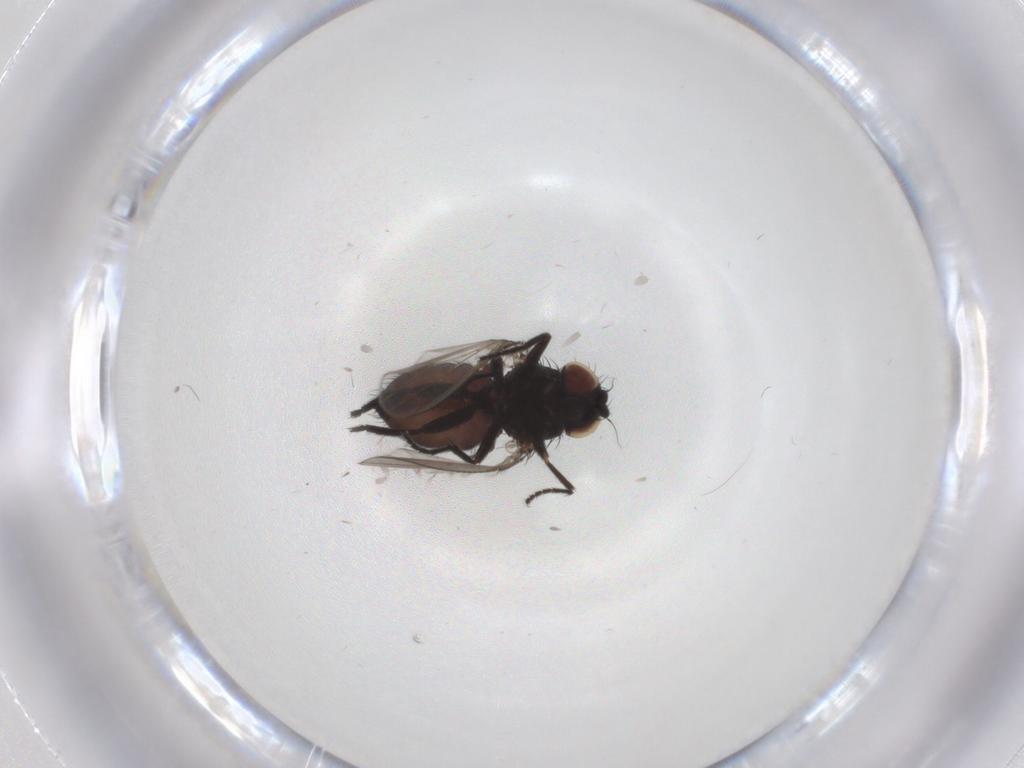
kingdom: Animalia
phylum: Arthropoda
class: Insecta
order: Diptera
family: Milichiidae
